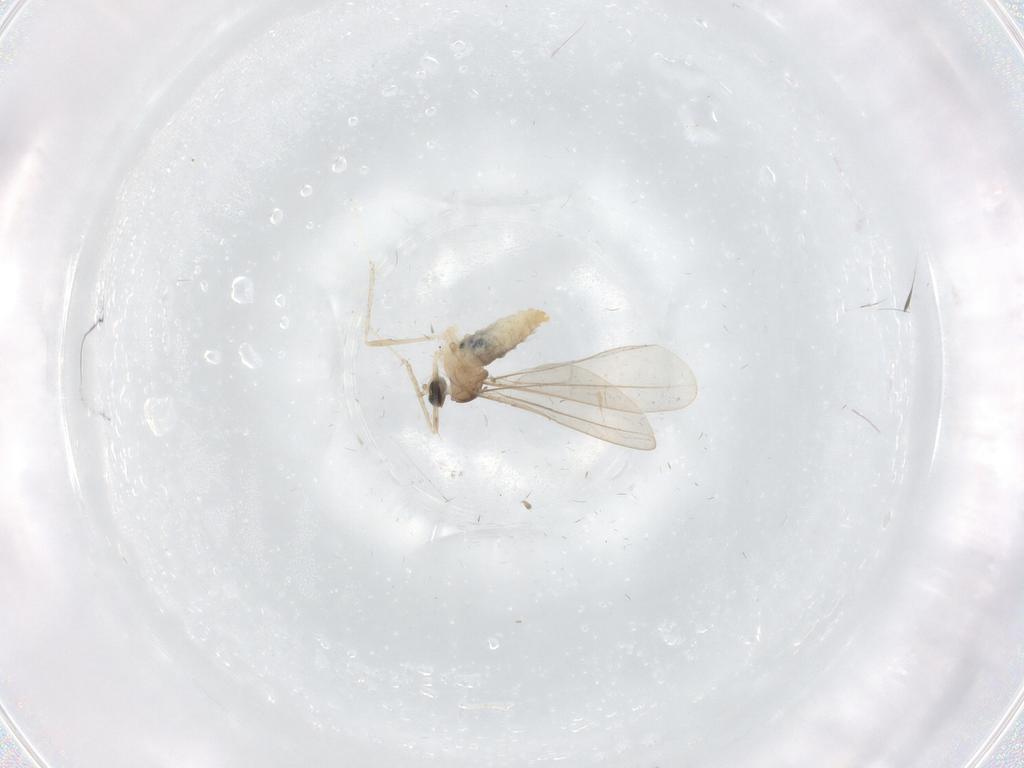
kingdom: Animalia
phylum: Arthropoda
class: Insecta
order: Diptera
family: Cecidomyiidae
